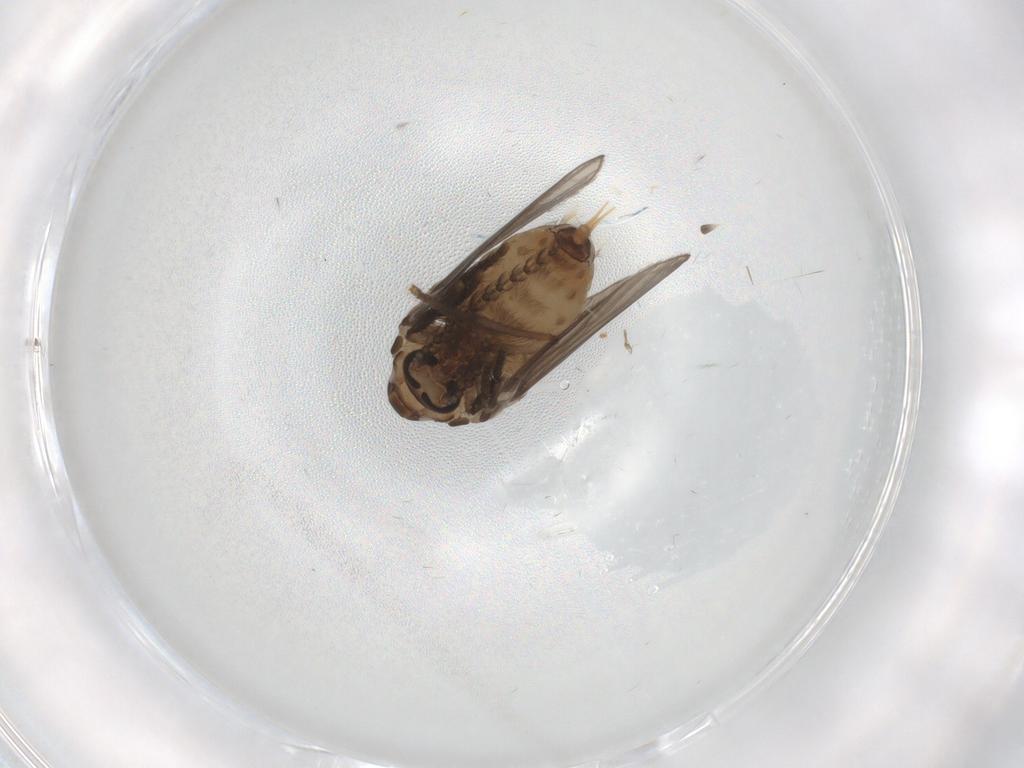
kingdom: Animalia
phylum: Arthropoda
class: Insecta
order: Diptera
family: Psychodidae
